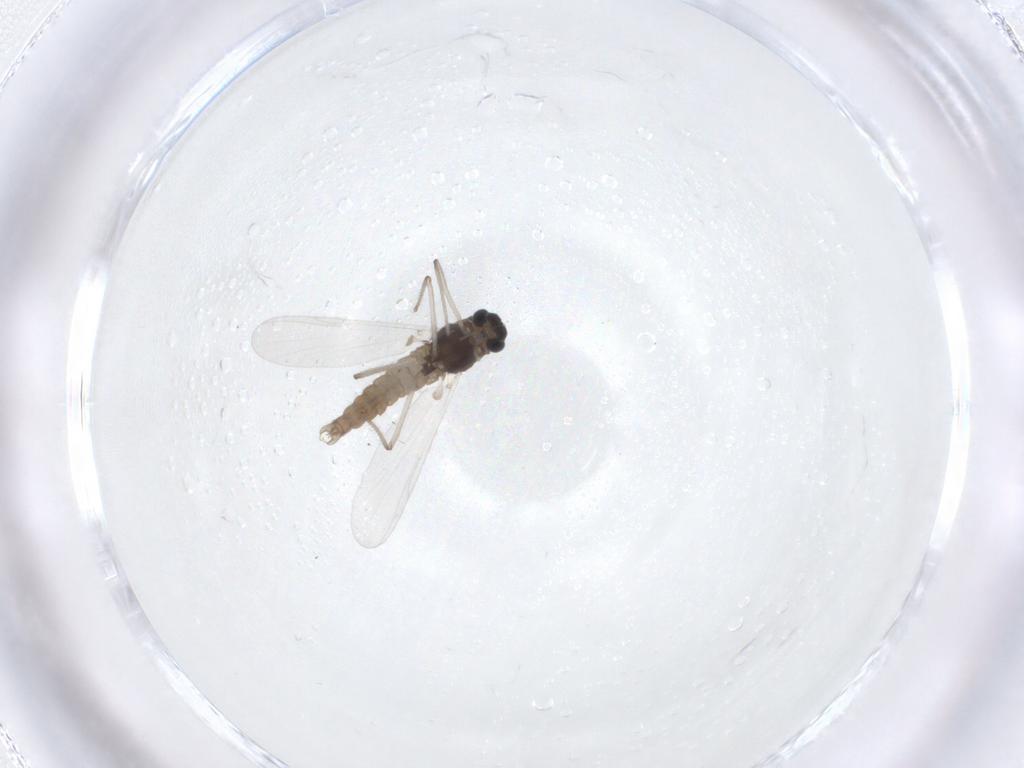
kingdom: Animalia
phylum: Arthropoda
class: Insecta
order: Diptera
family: Chironomidae
